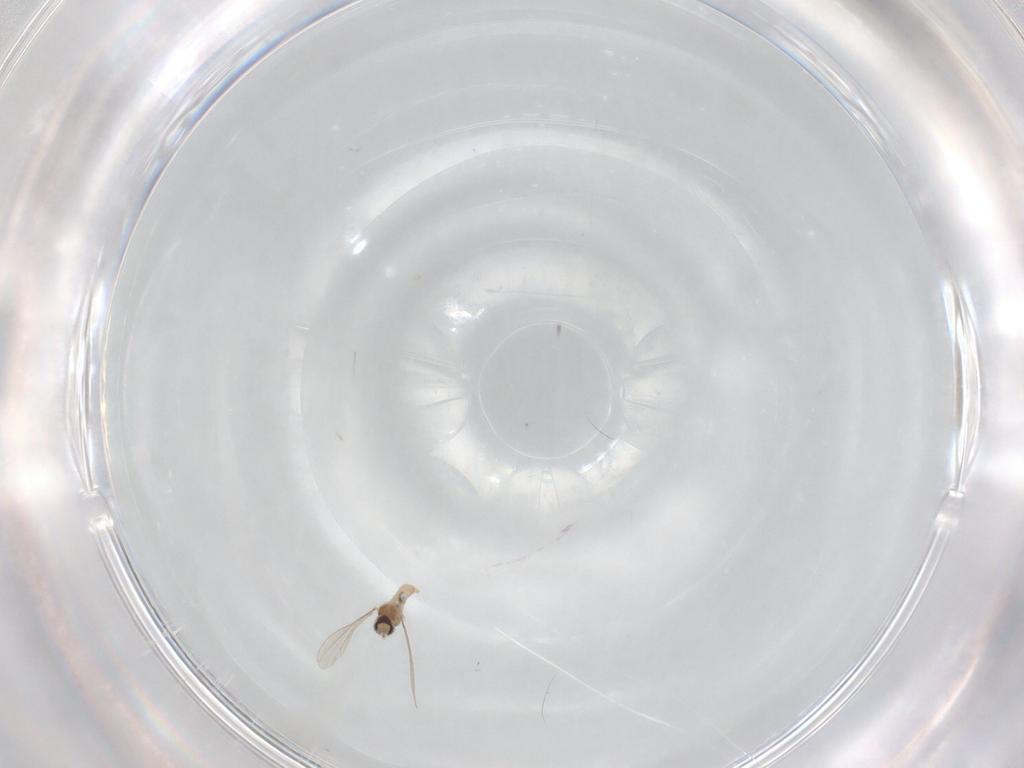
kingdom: Animalia
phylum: Arthropoda
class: Insecta
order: Diptera
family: Cecidomyiidae
